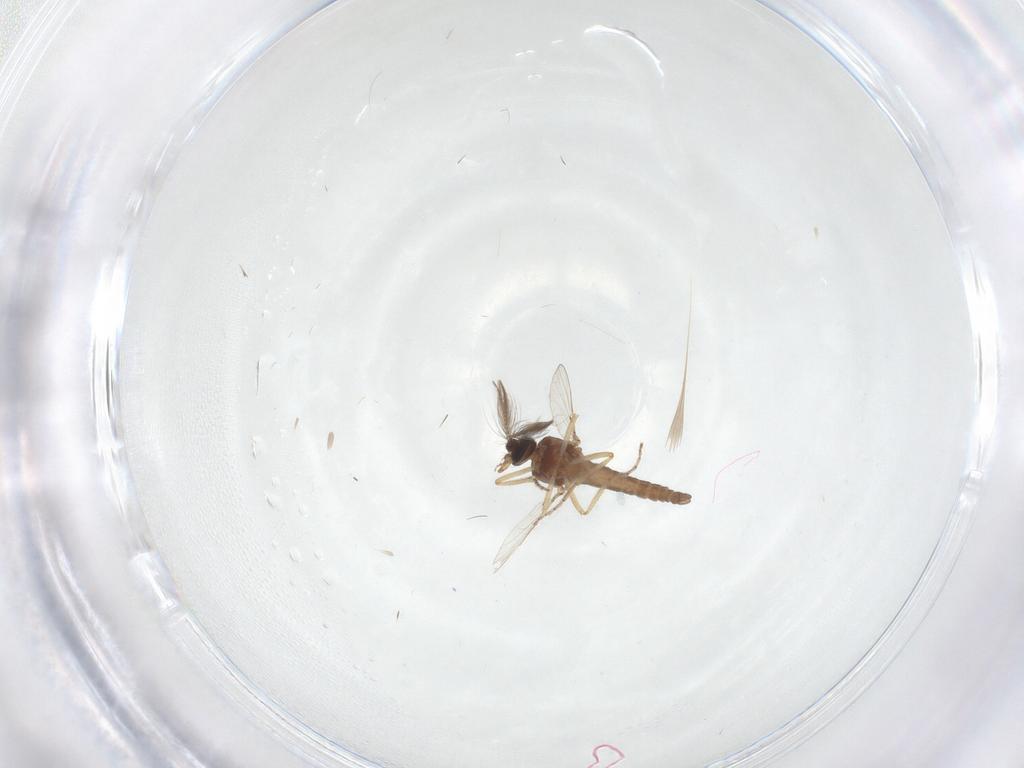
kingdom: Animalia
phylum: Arthropoda
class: Insecta
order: Diptera
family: Ceratopogonidae
